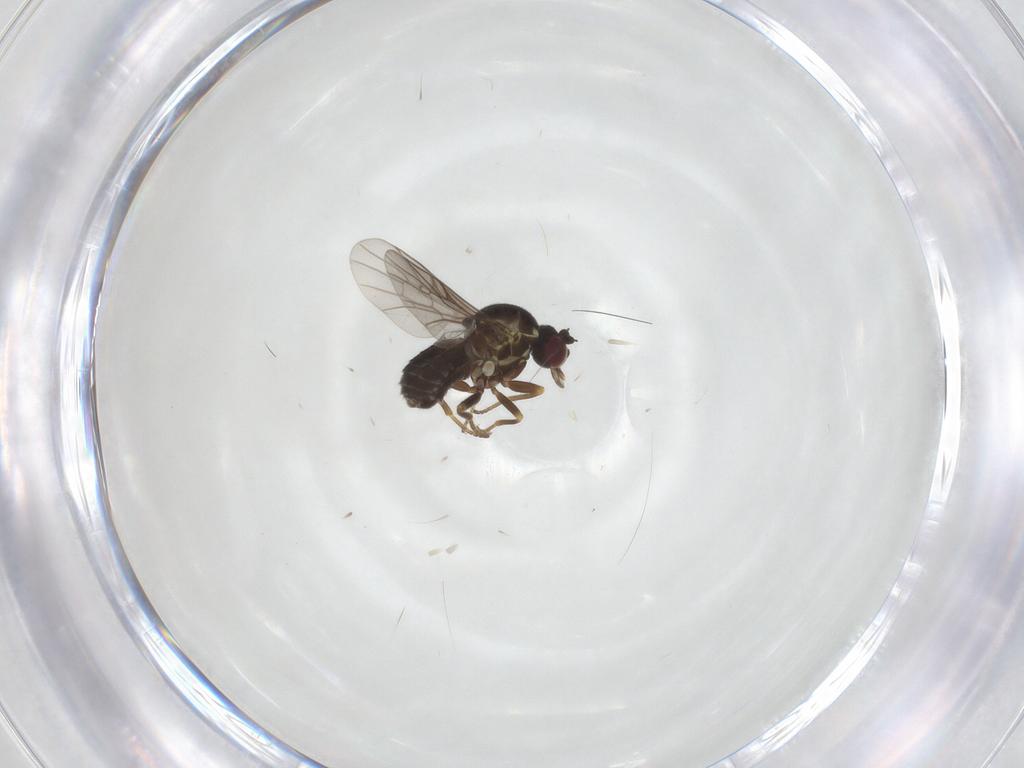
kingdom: Animalia
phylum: Arthropoda
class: Insecta
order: Diptera
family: Bombyliidae
